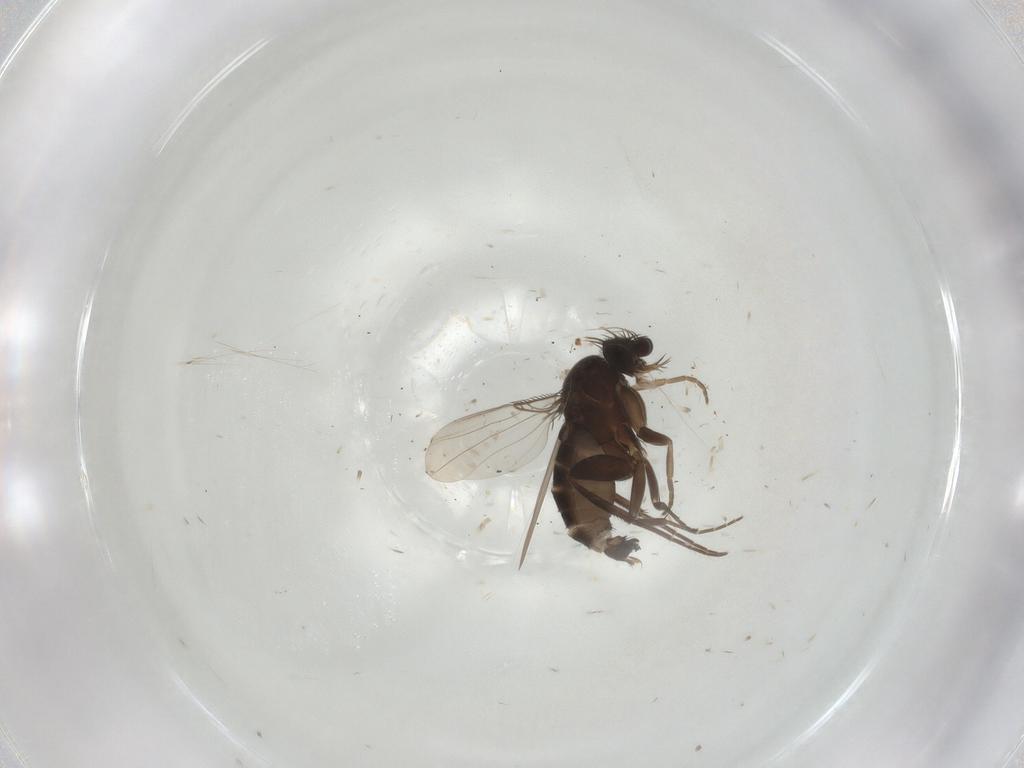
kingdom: Animalia
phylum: Arthropoda
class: Insecta
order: Diptera
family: Phoridae
